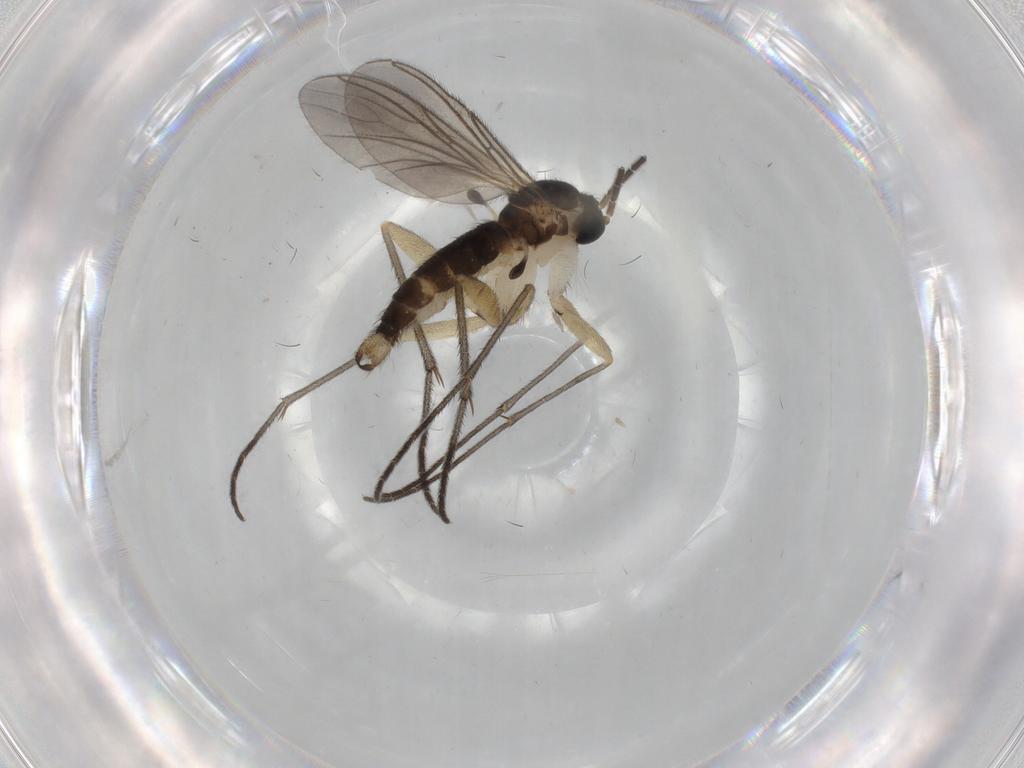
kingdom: Animalia
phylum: Arthropoda
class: Insecta
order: Diptera
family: Sciaridae
